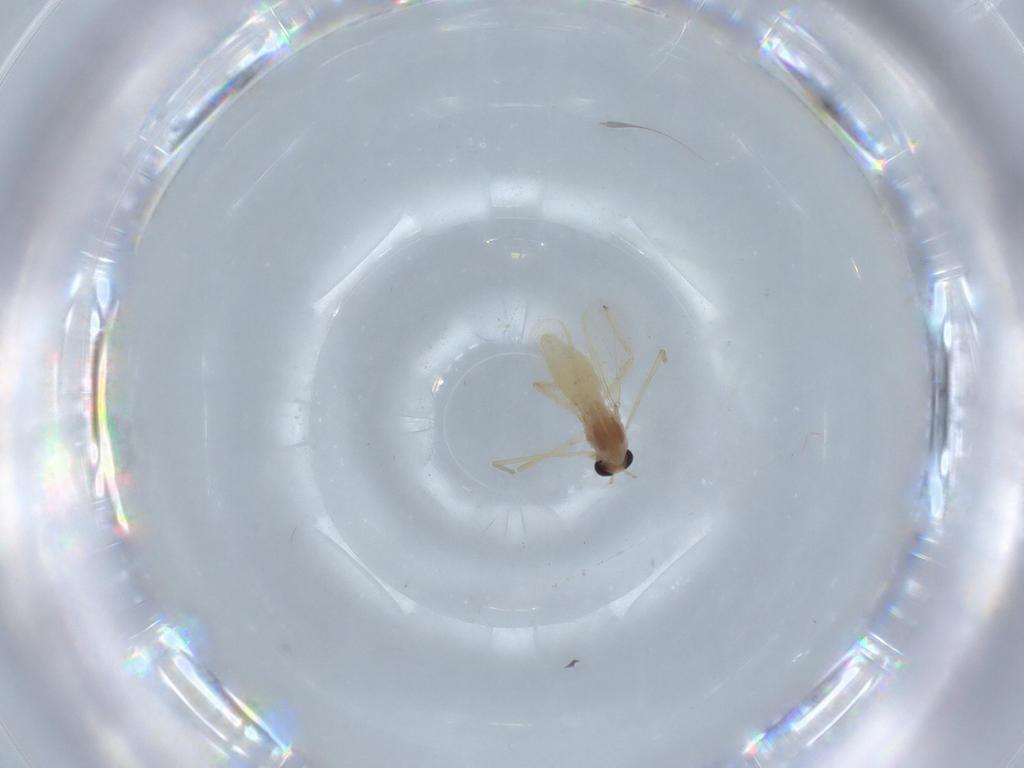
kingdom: Animalia
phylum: Arthropoda
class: Insecta
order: Diptera
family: Chironomidae
